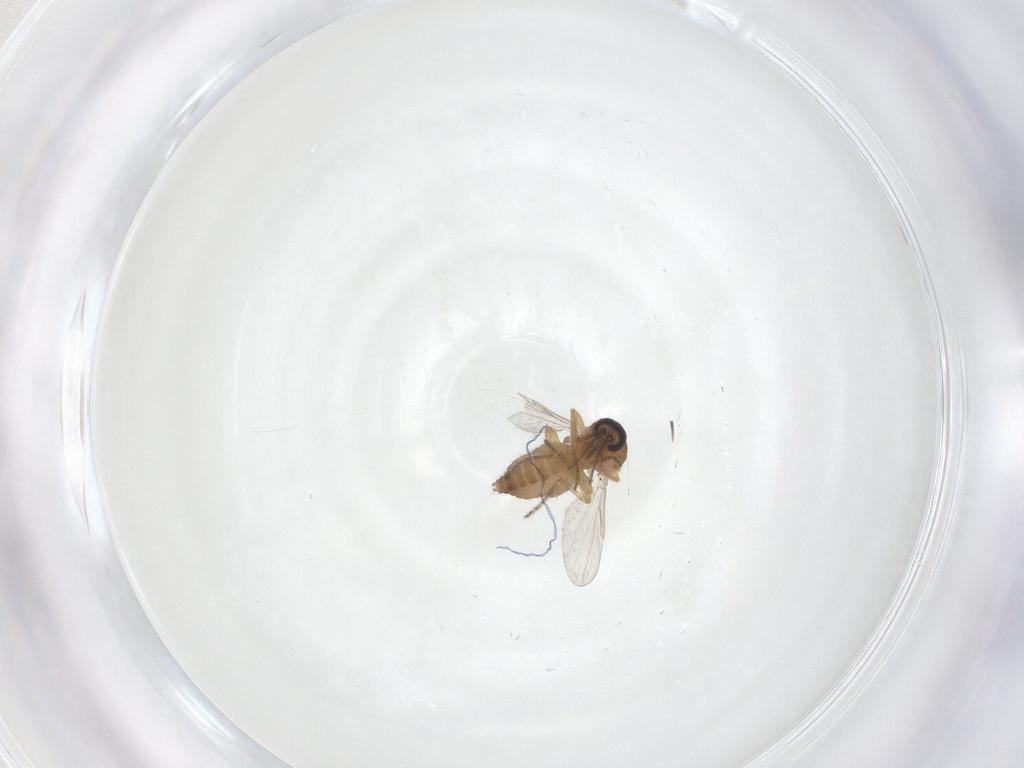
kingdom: Animalia
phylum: Arthropoda
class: Insecta
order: Diptera
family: Ceratopogonidae
